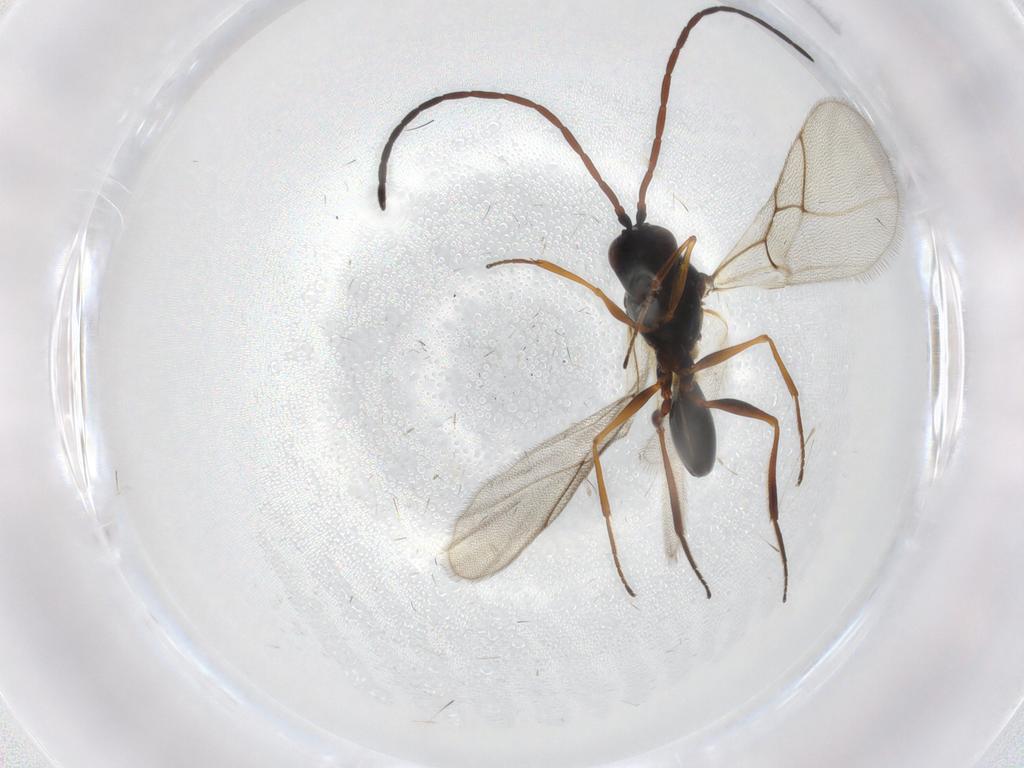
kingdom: Animalia
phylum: Arthropoda
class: Insecta
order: Hymenoptera
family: Figitidae
